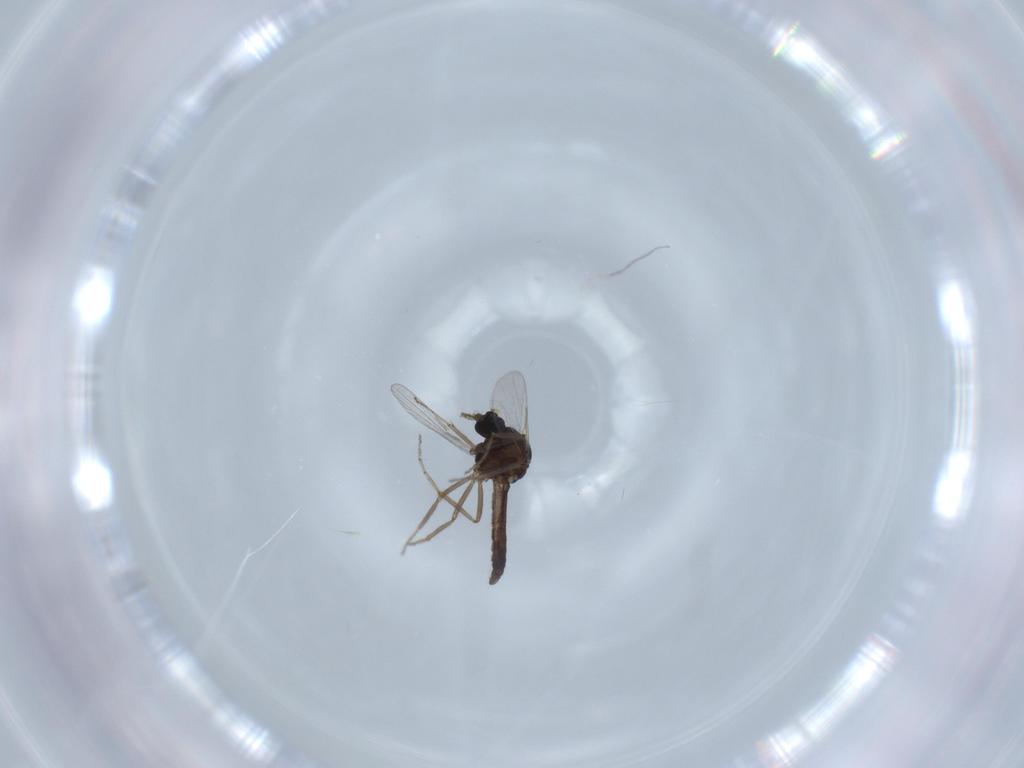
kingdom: Animalia
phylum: Arthropoda
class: Insecta
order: Diptera
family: Ceratopogonidae
